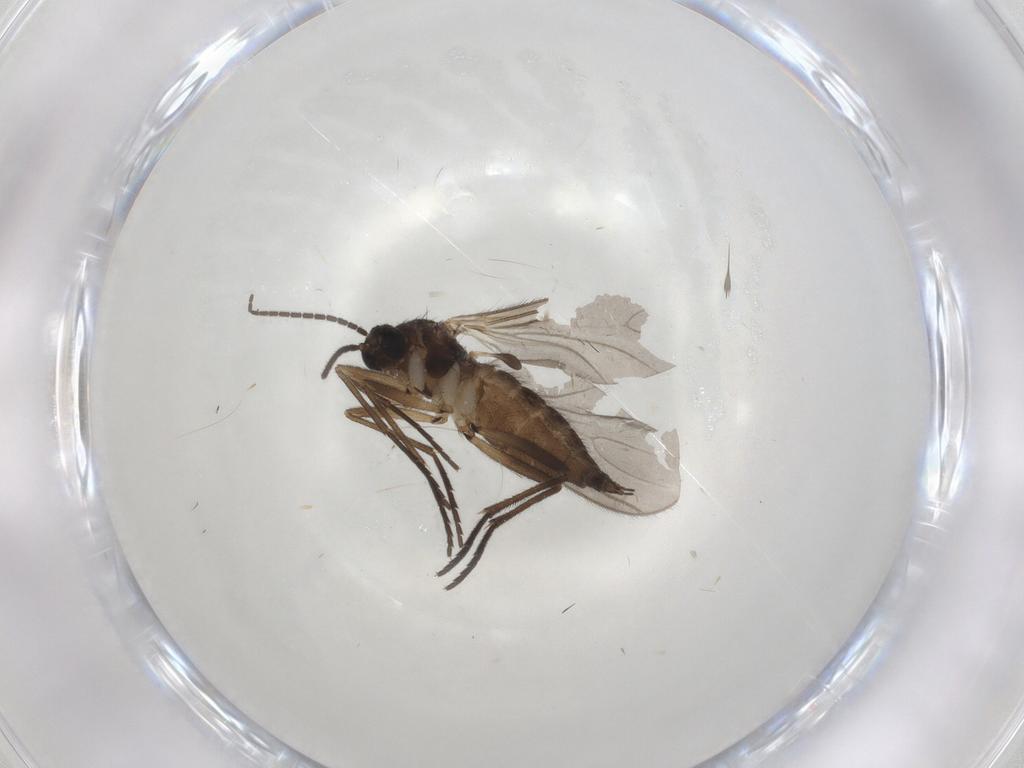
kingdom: Animalia
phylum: Arthropoda
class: Insecta
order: Diptera
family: Sciaridae
